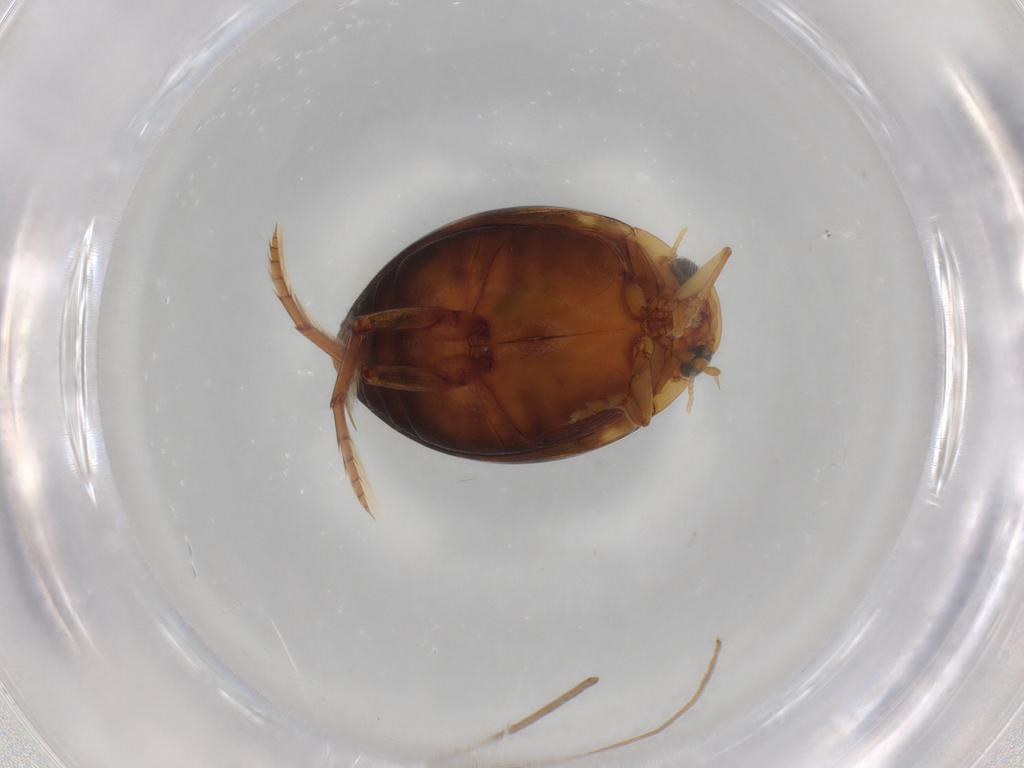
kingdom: Animalia
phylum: Arthropoda
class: Insecta
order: Coleoptera
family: Dytiscidae
